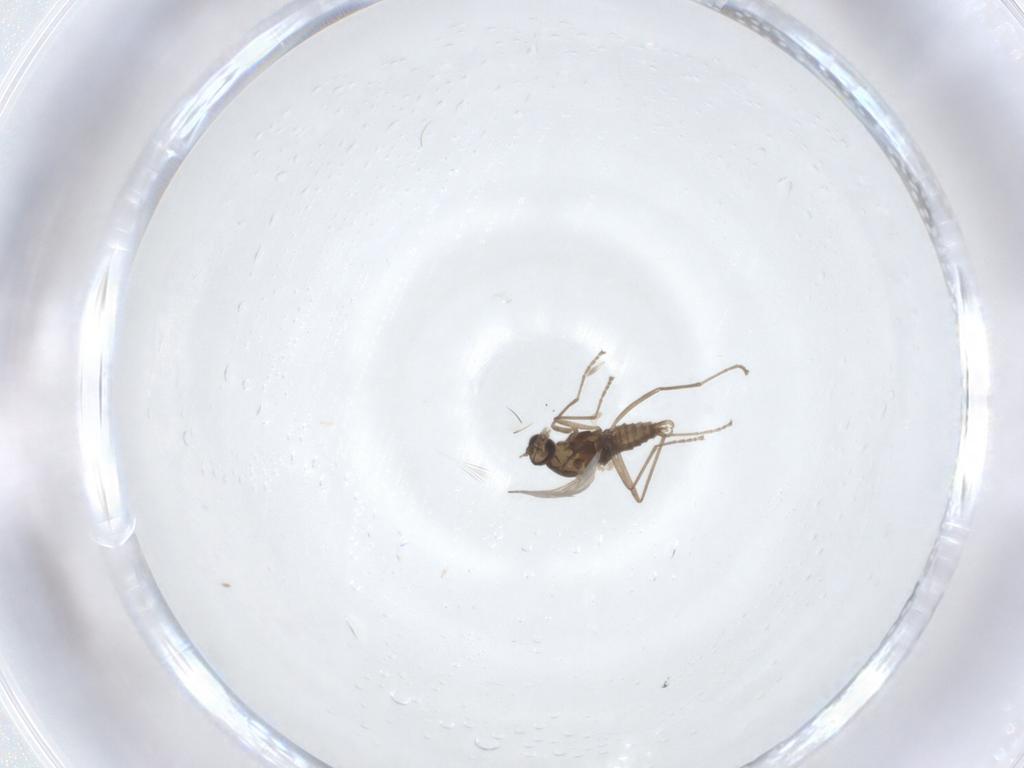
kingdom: Animalia
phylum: Arthropoda
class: Insecta
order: Diptera
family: Cecidomyiidae
